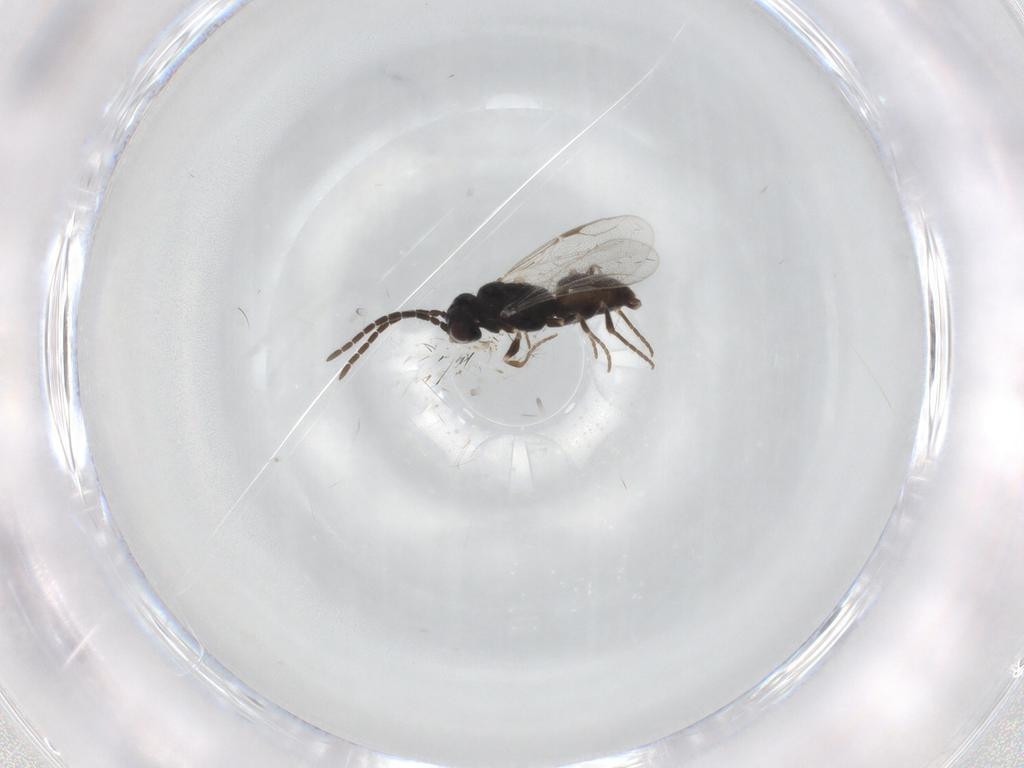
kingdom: Animalia
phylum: Arthropoda
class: Insecta
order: Hymenoptera
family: Dryinidae
